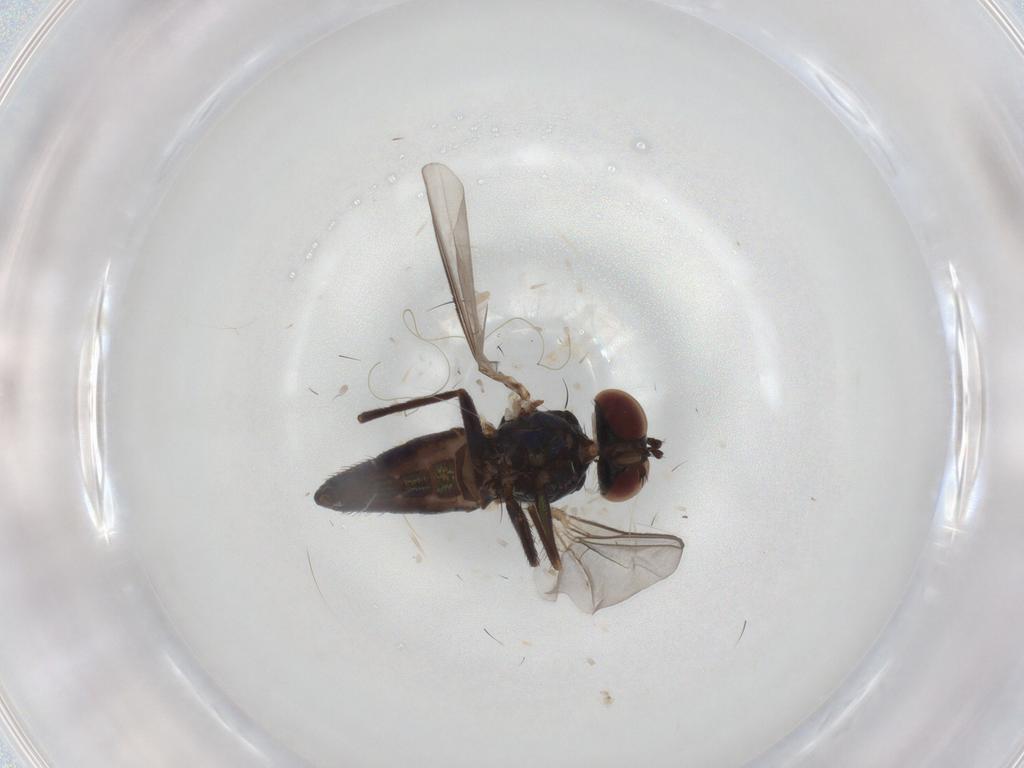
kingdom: Animalia
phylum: Arthropoda
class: Insecta
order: Diptera
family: Dolichopodidae
